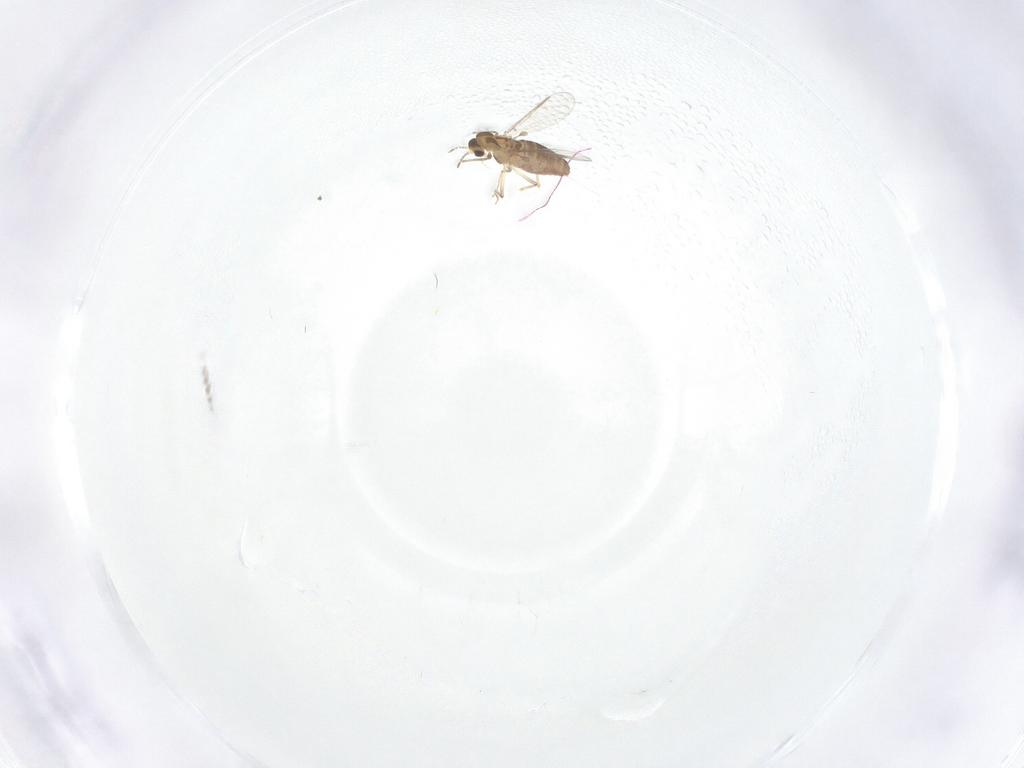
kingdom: Animalia
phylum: Arthropoda
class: Insecta
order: Diptera
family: Chironomidae
